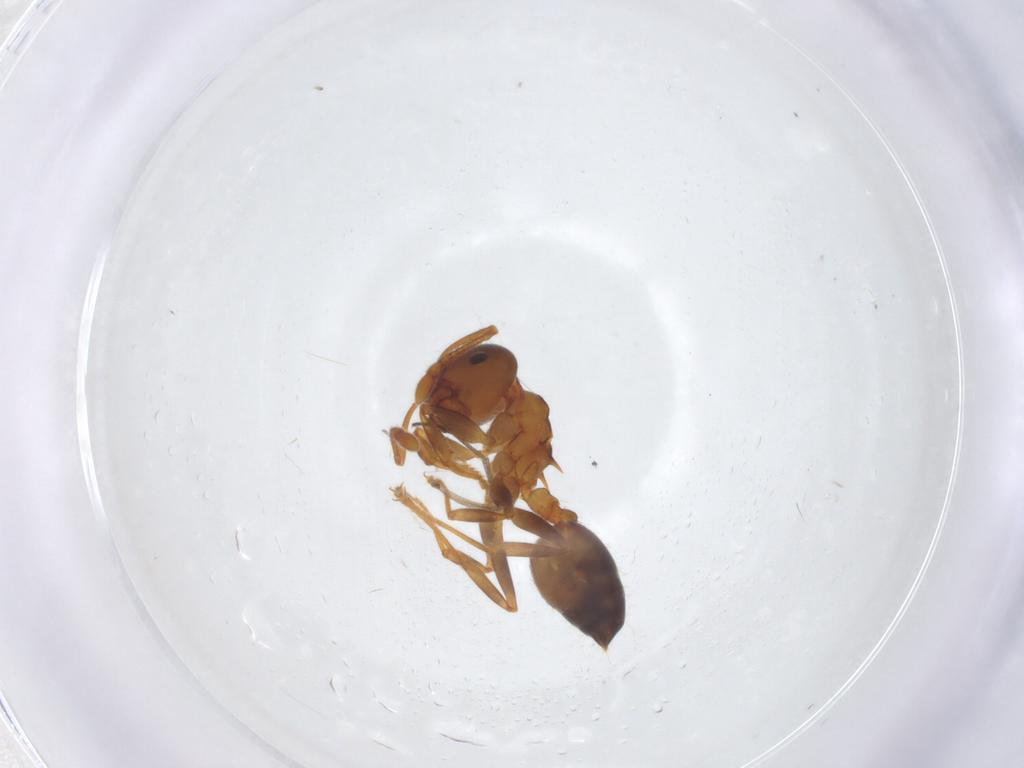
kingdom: Animalia
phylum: Arthropoda
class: Insecta
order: Hymenoptera
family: Formicidae
